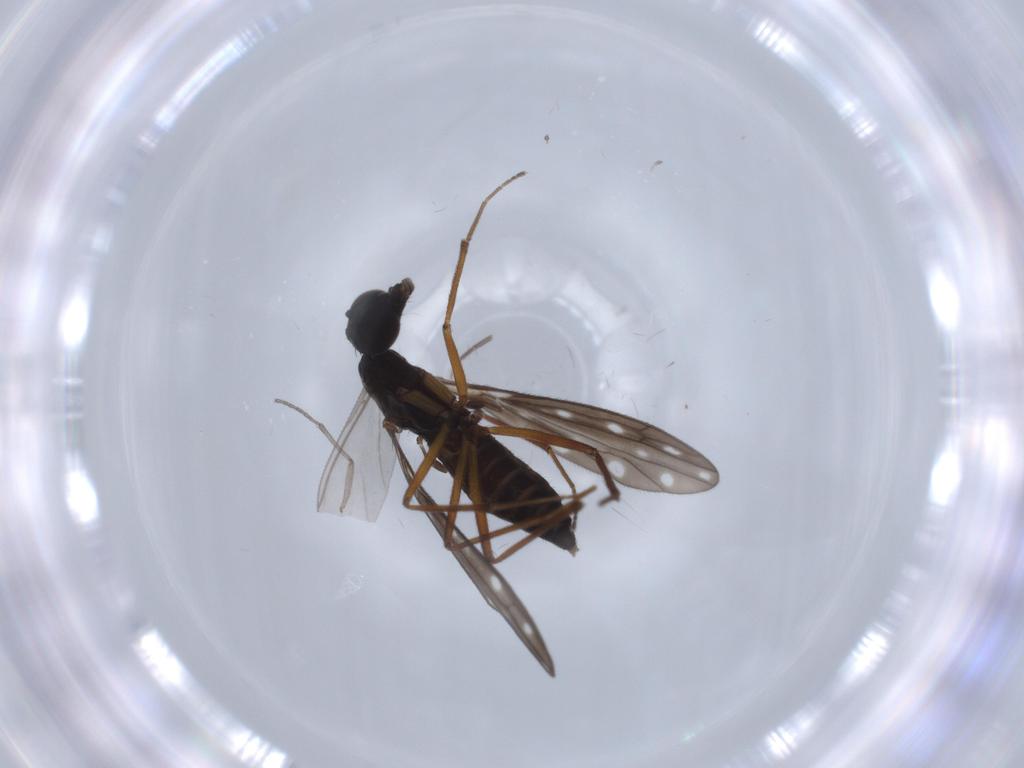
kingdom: Animalia
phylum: Arthropoda
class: Insecta
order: Diptera
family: Empididae
